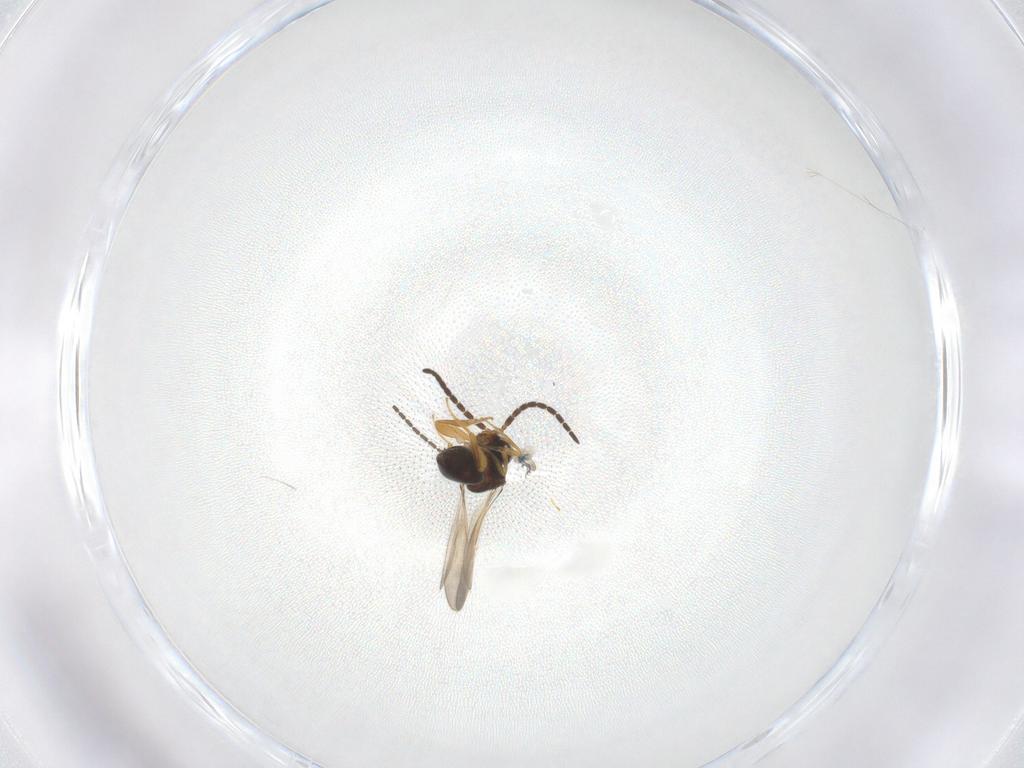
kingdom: Animalia
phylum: Arthropoda
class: Insecta
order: Hymenoptera
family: Ceraphronidae
